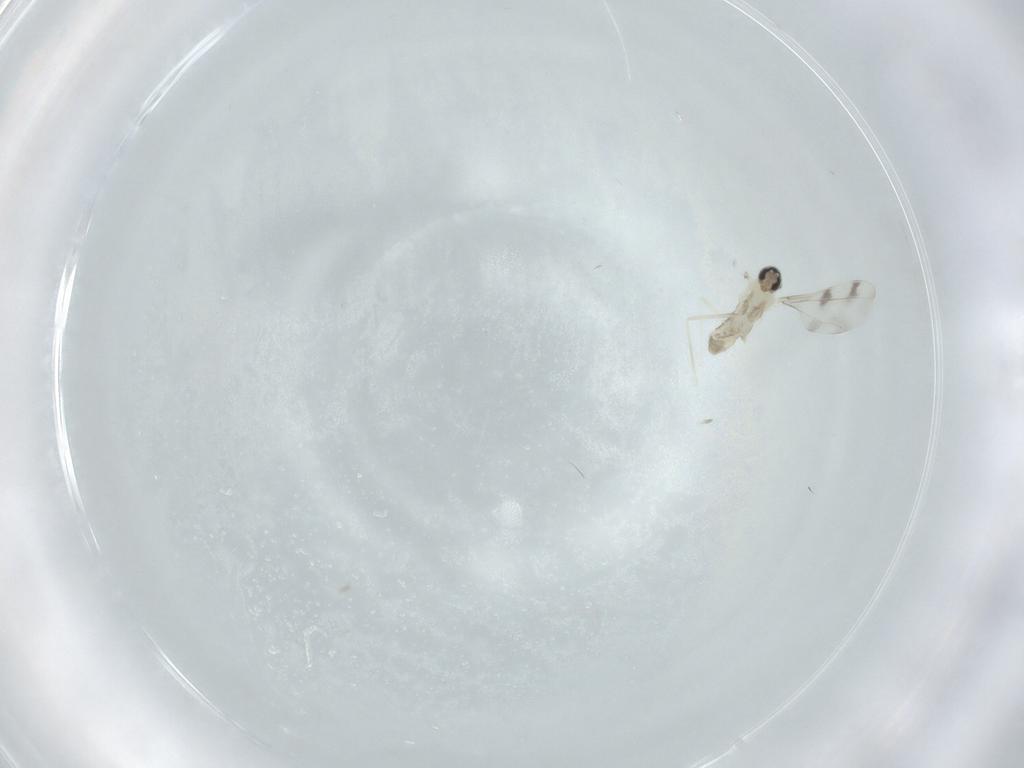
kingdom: Animalia
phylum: Arthropoda
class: Insecta
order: Diptera
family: Cecidomyiidae
